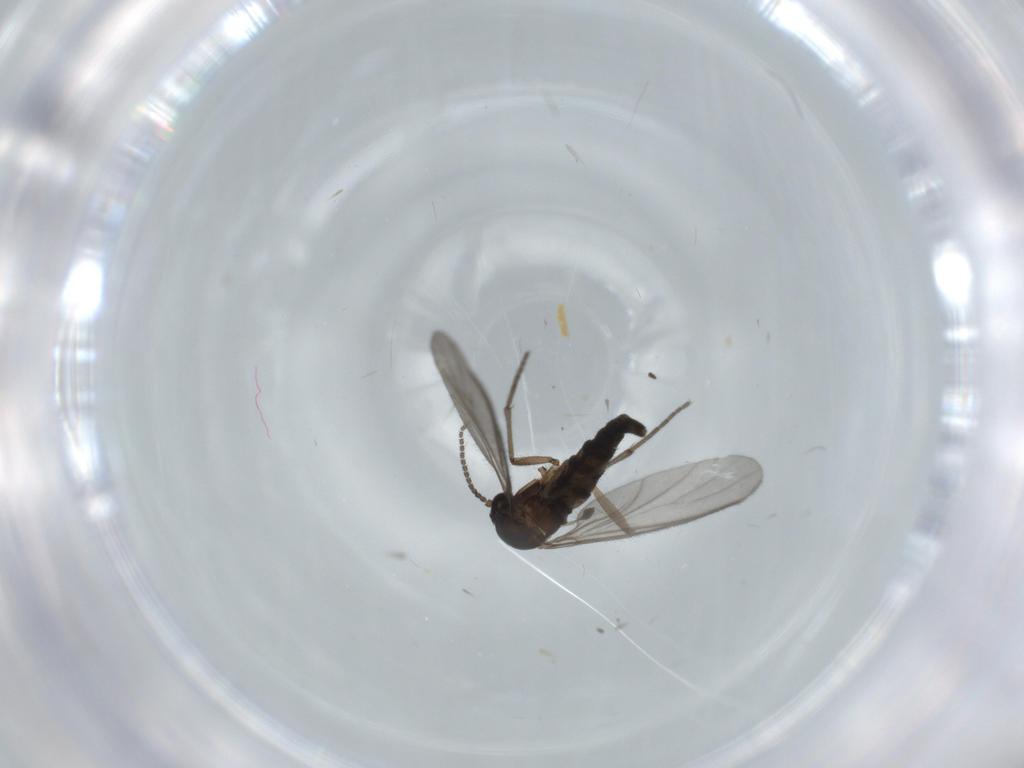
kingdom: Animalia
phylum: Arthropoda
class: Insecta
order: Diptera
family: Sciaridae
